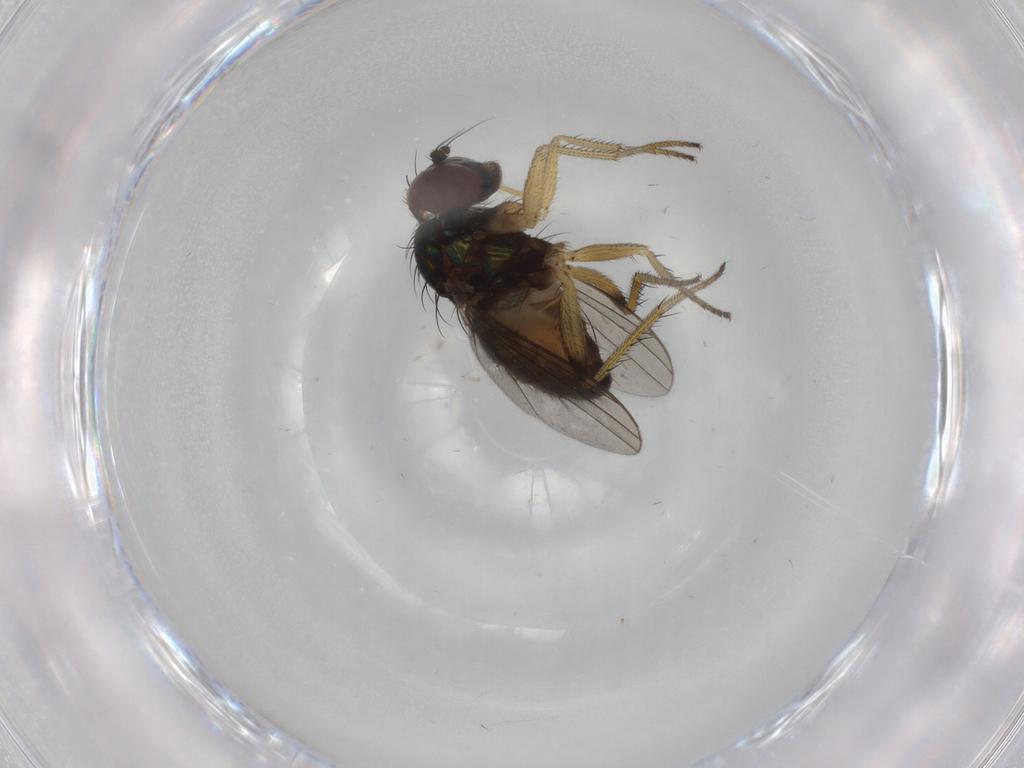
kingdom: Animalia
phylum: Arthropoda
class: Insecta
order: Diptera
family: Dolichopodidae
